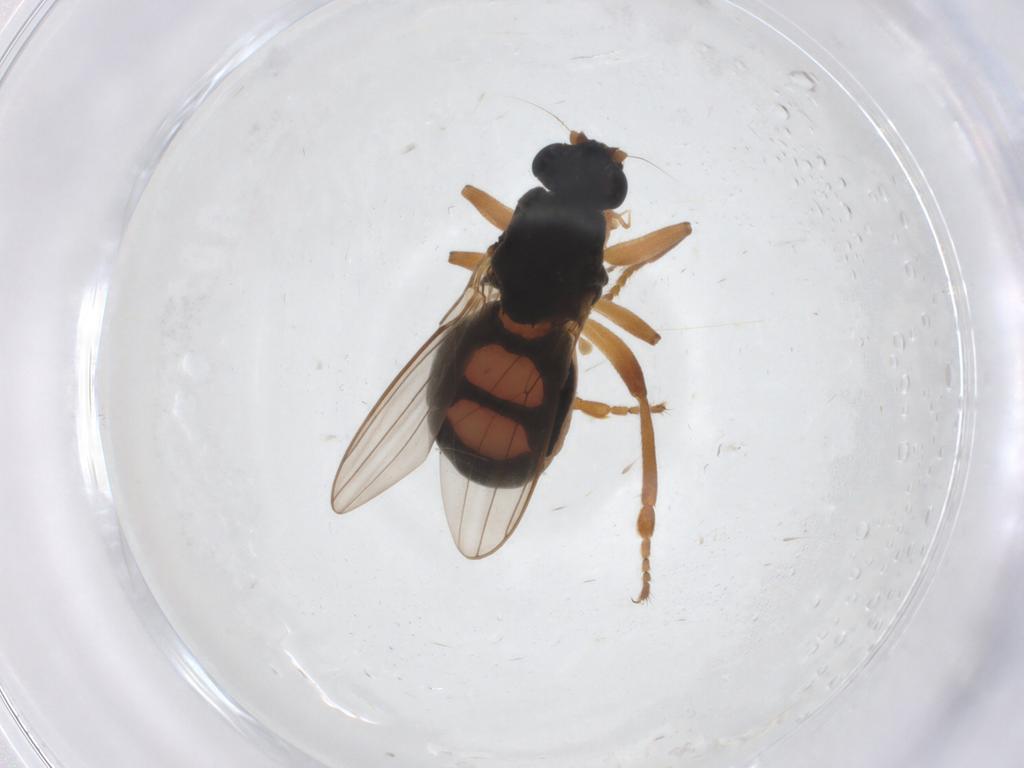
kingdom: Animalia
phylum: Arthropoda
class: Insecta
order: Diptera
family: Sphaeroceridae
